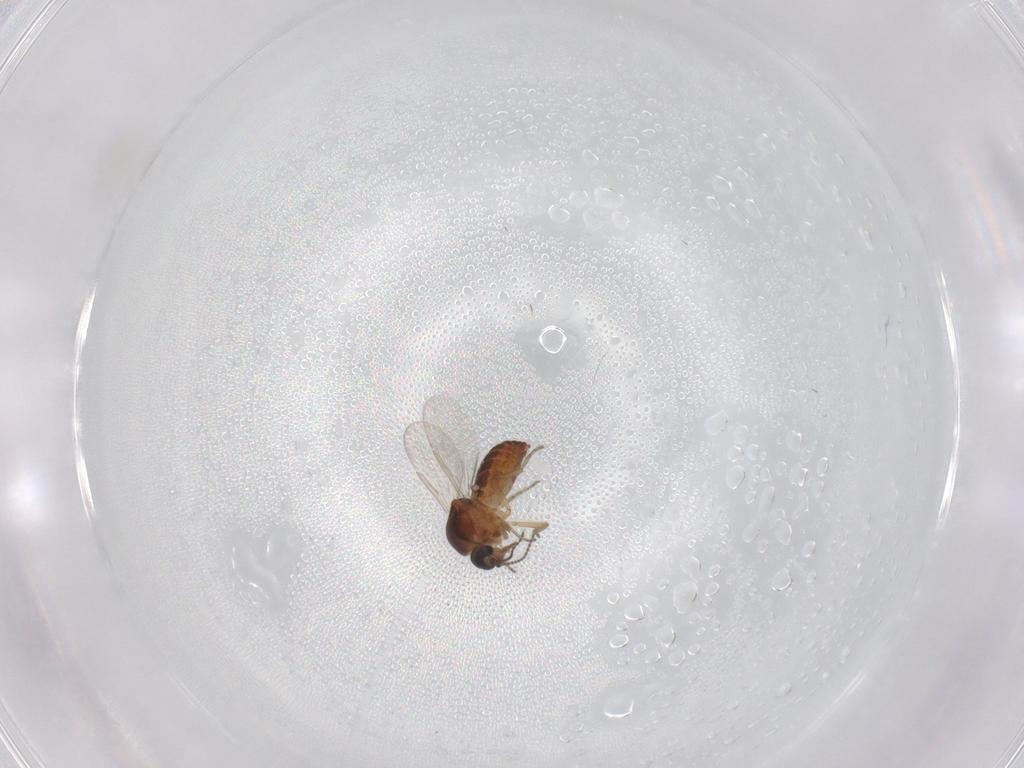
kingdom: Animalia
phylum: Arthropoda
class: Insecta
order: Diptera
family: Ceratopogonidae
